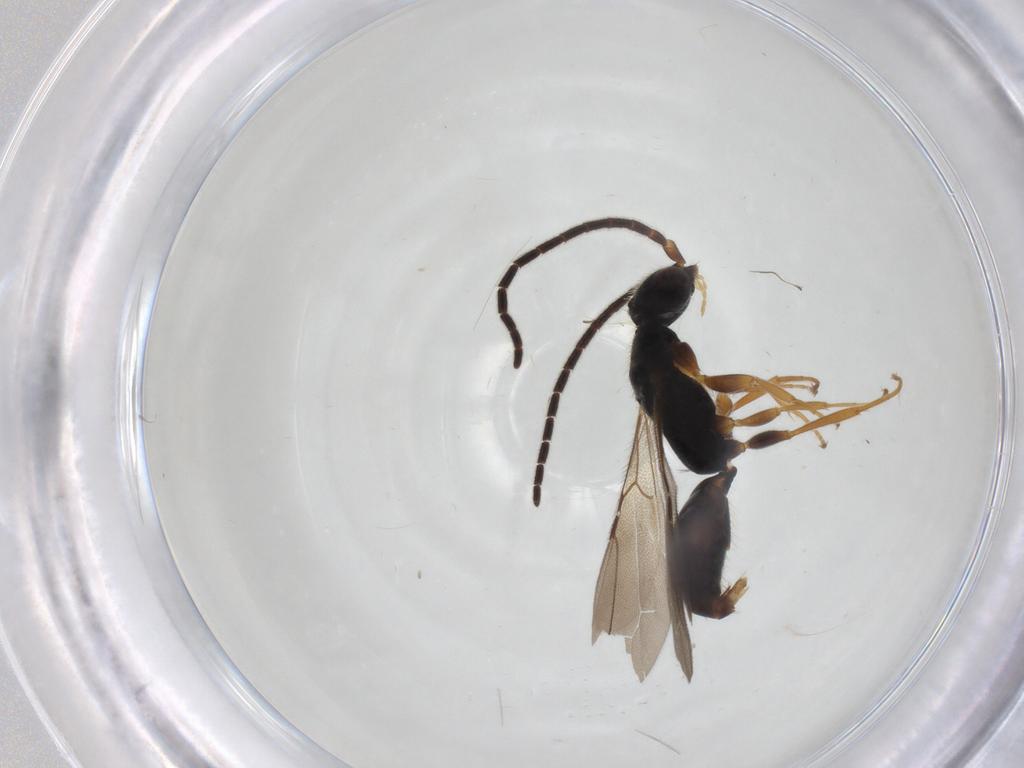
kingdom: Animalia
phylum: Arthropoda
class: Insecta
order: Hymenoptera
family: Bethylidae
